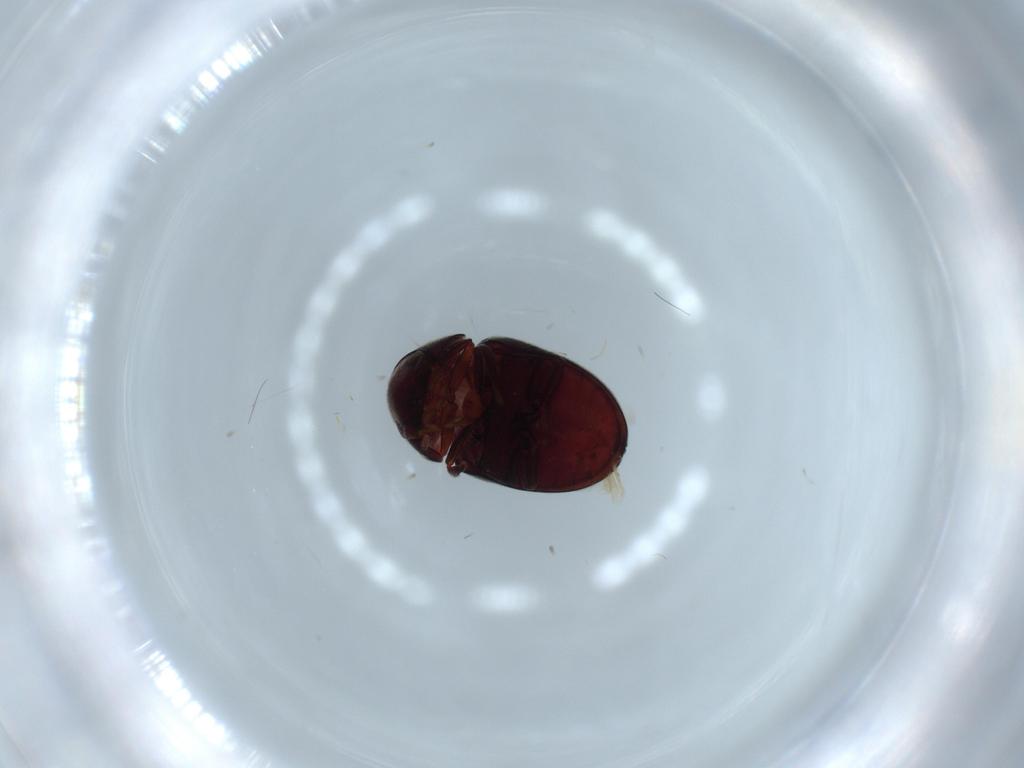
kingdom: Animalia
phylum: Arthropoda
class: Insecta
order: Coleoptera
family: Ptinidae
